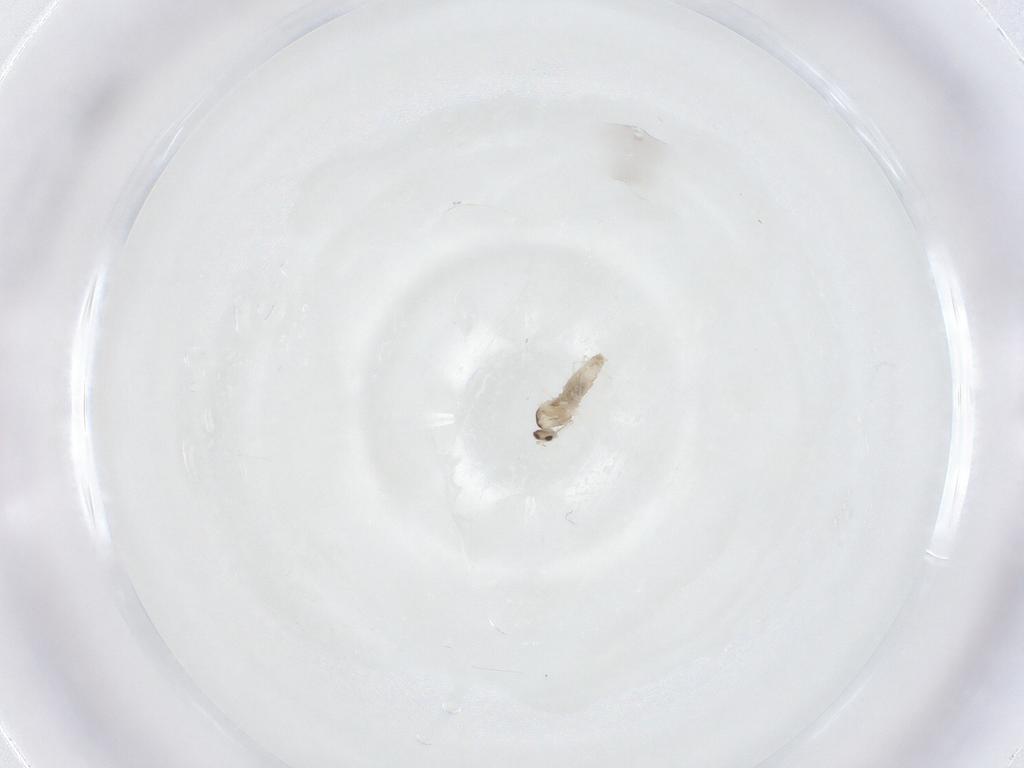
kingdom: Animalia
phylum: Arthropoda
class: Insecta
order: Diptera
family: Cecidomyiidae
